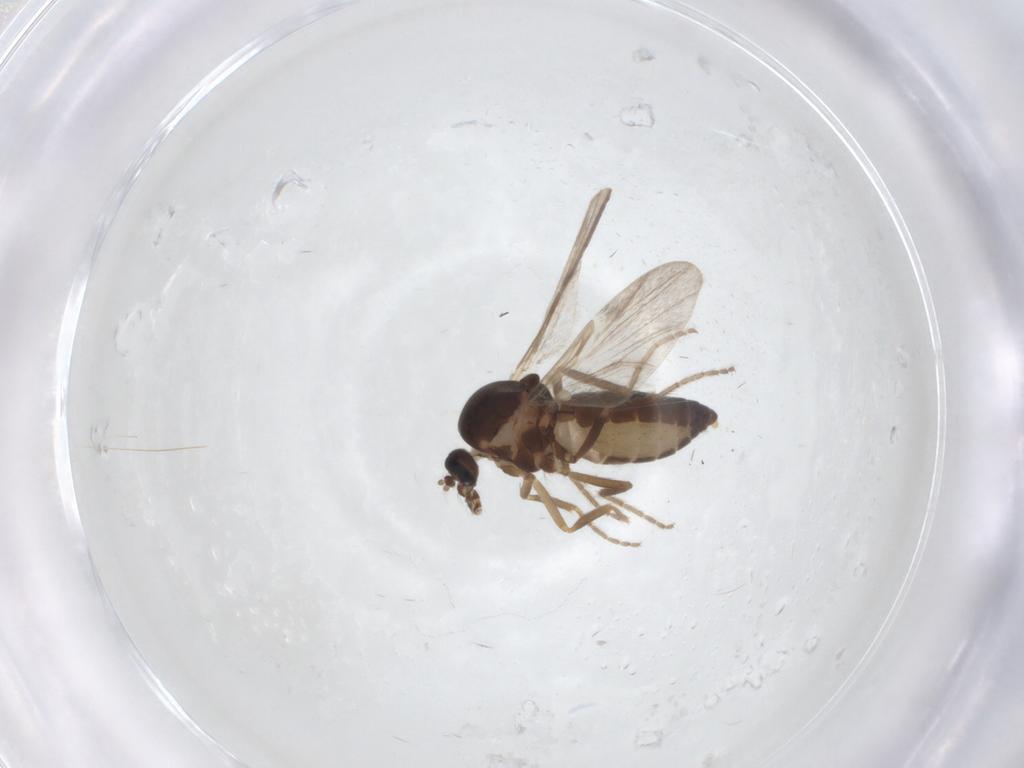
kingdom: Animalia
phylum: Arthropoda
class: Insecta
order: Diptera
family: Ceratopogonidae
